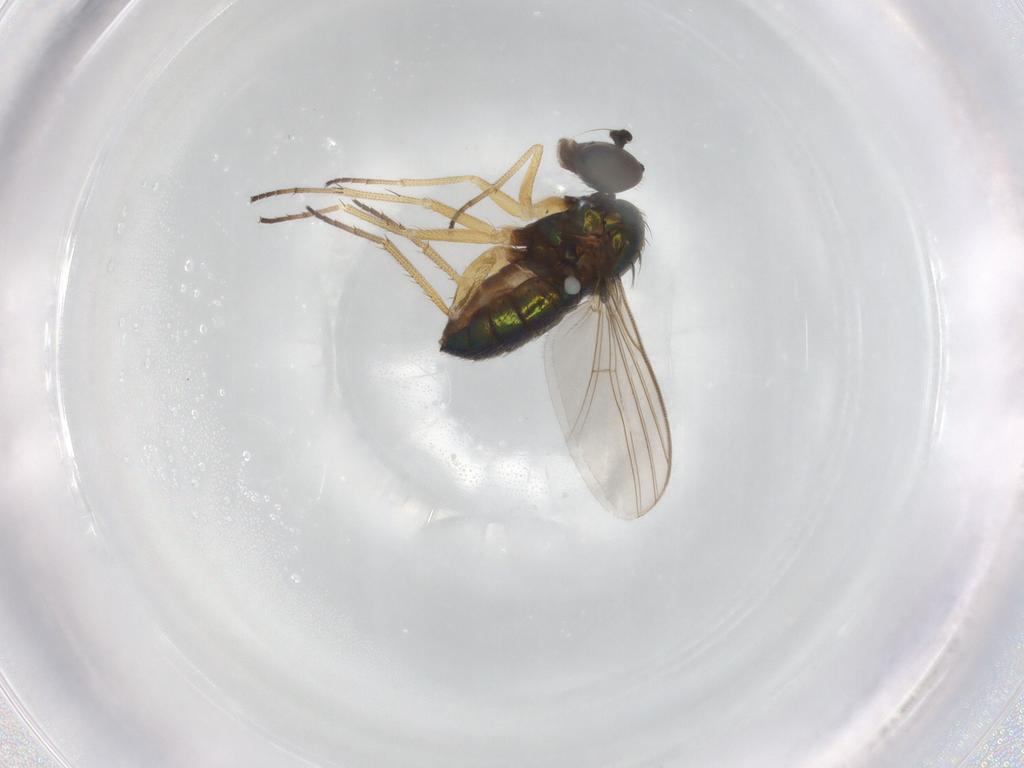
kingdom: Animalia
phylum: Arthropoda
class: Insecta
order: Diptera
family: Dolichopodidae
